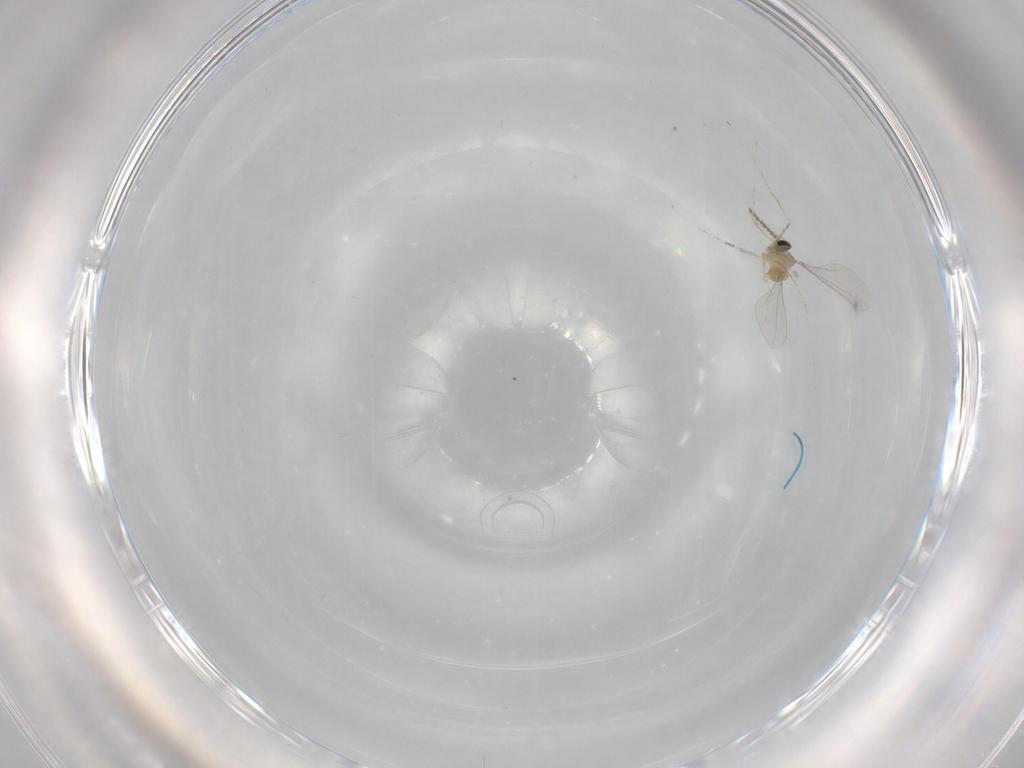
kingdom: Animalia
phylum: Arthropoda
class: Insecta
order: Diptera
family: Cecidomyiidae
